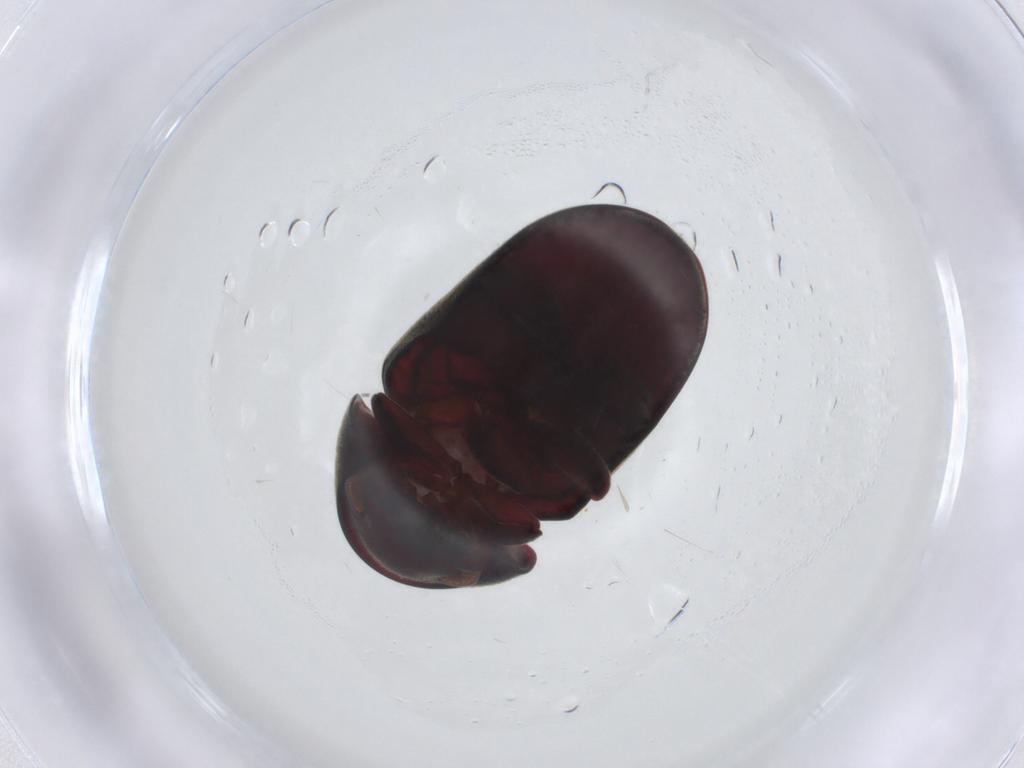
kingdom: Animalia
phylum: Arthropoda
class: Insecta
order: Coleoptera
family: Ptinidae
